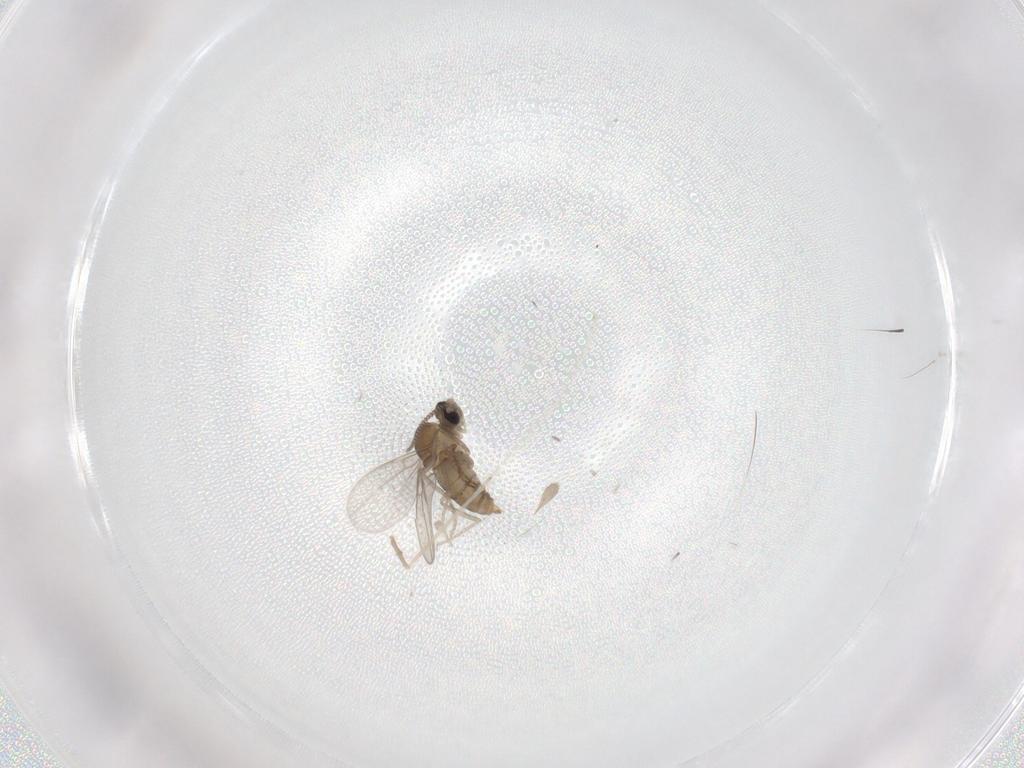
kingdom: Animalia
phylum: Arthropoda
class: Insecta
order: Diptera
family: Cecidomyiidae
